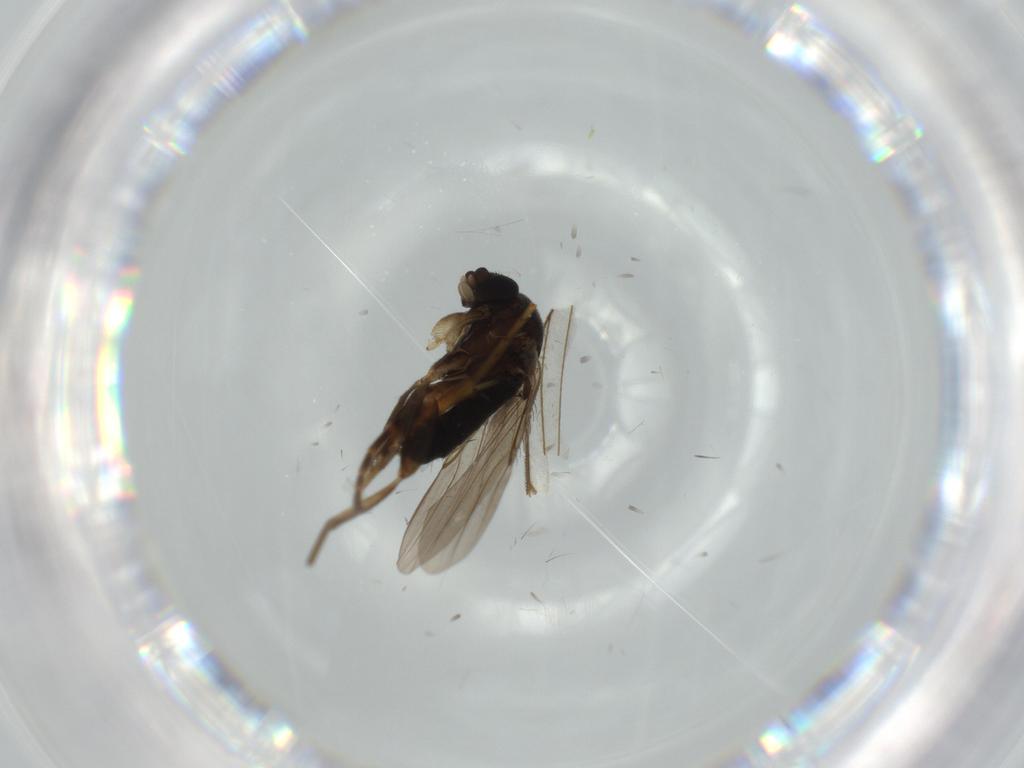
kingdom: Animalia
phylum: Arthropoda
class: Insecta
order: Diptera
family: Phoridae
